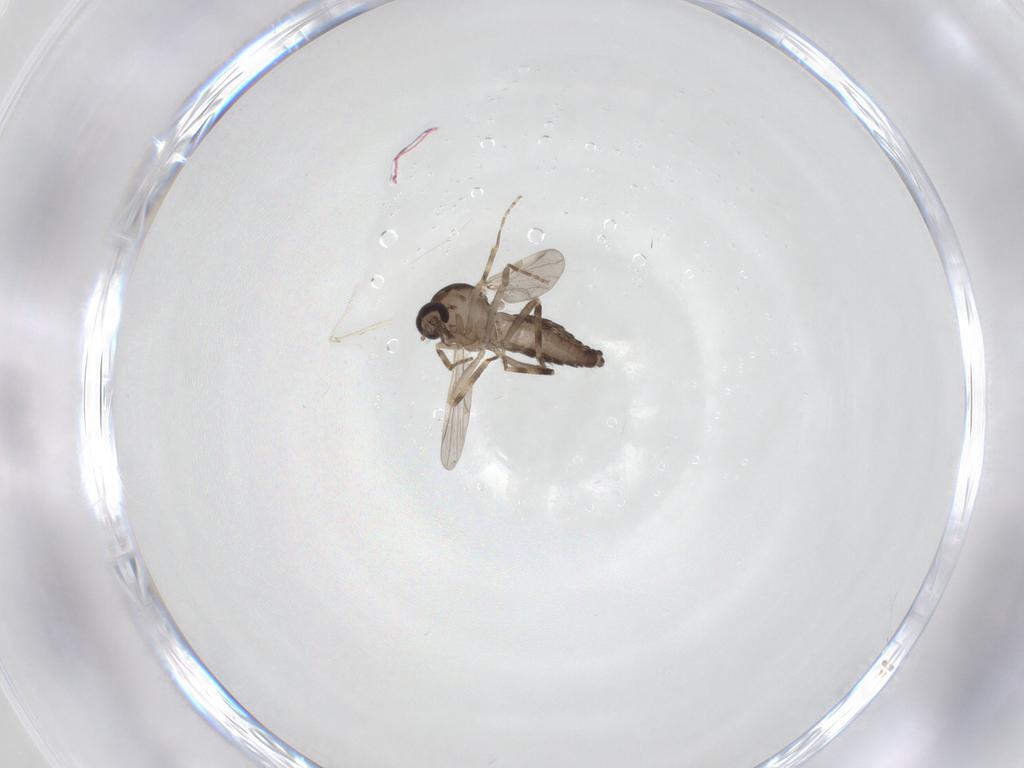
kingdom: Animalia
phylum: Arthropoda
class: Insecta
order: Diptera
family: Ceratopogonidae
